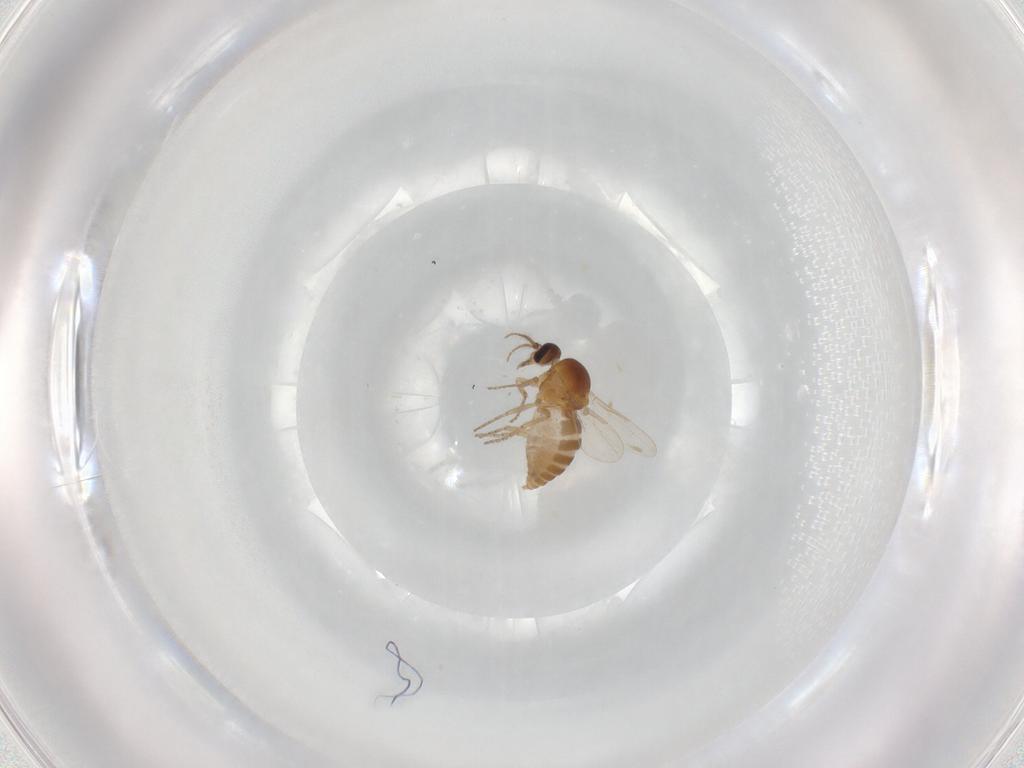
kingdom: Animalia
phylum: Arthropoda
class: Insecta
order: Diptera
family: Ceratopogonidae
